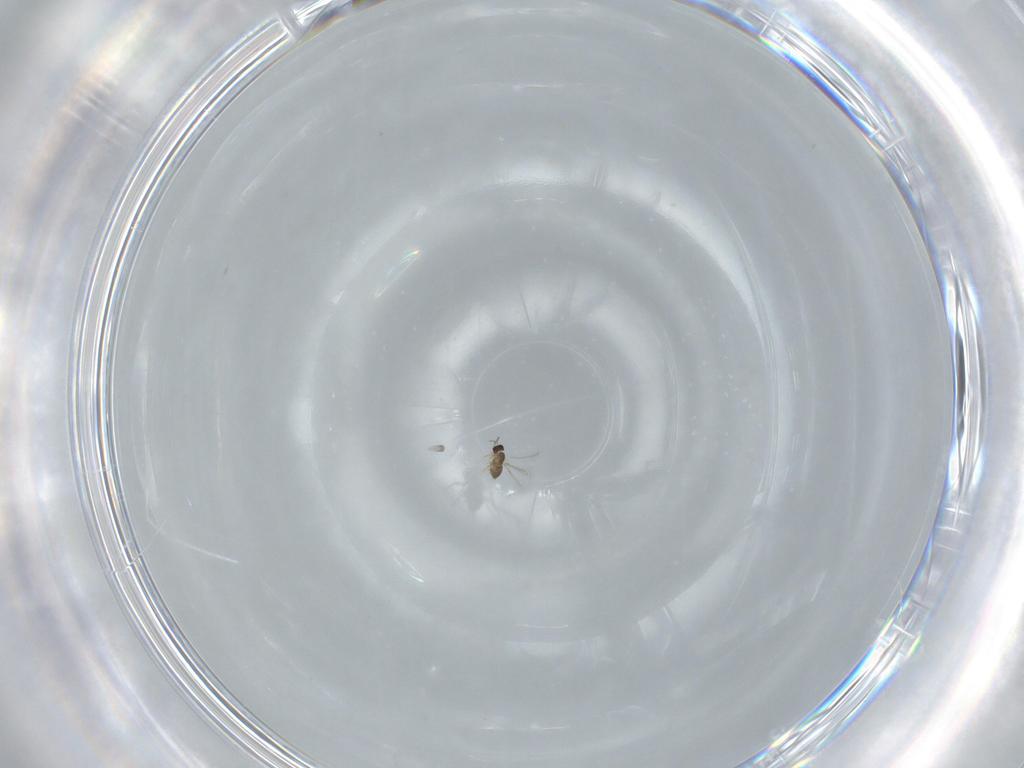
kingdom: Animalia
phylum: Arthropoda
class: Insecta
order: Hymenoptera
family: Mymaridae
